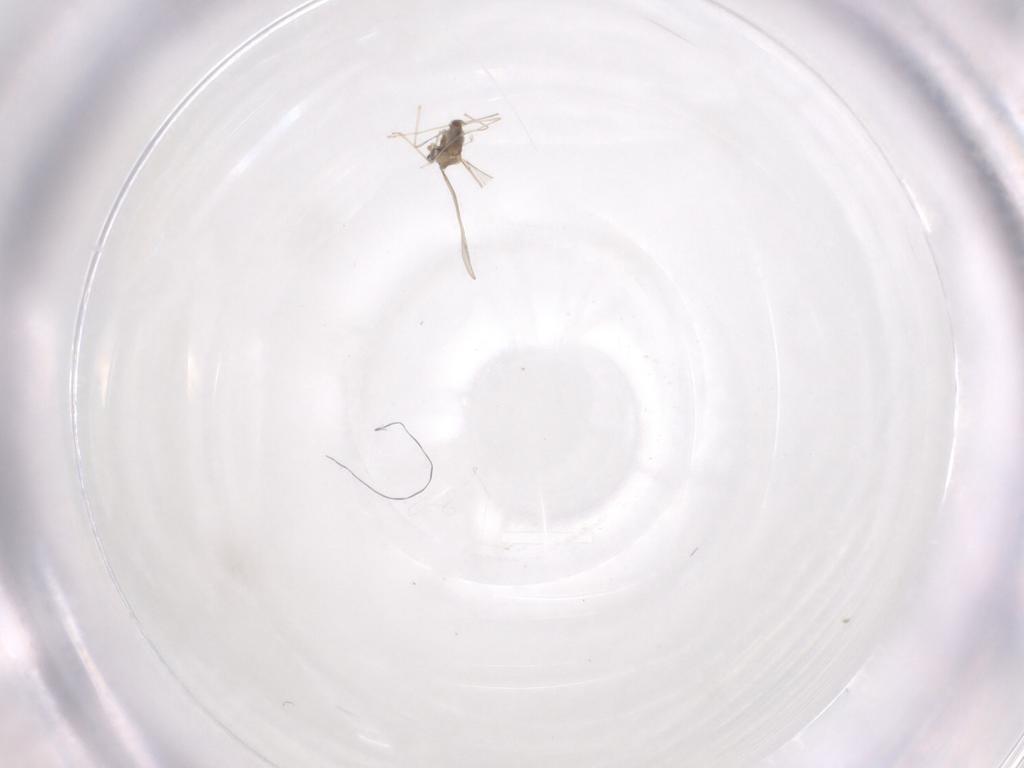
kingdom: Animalia
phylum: Arthropoda
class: Insecta
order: Diptera
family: Cecidomyiidae
